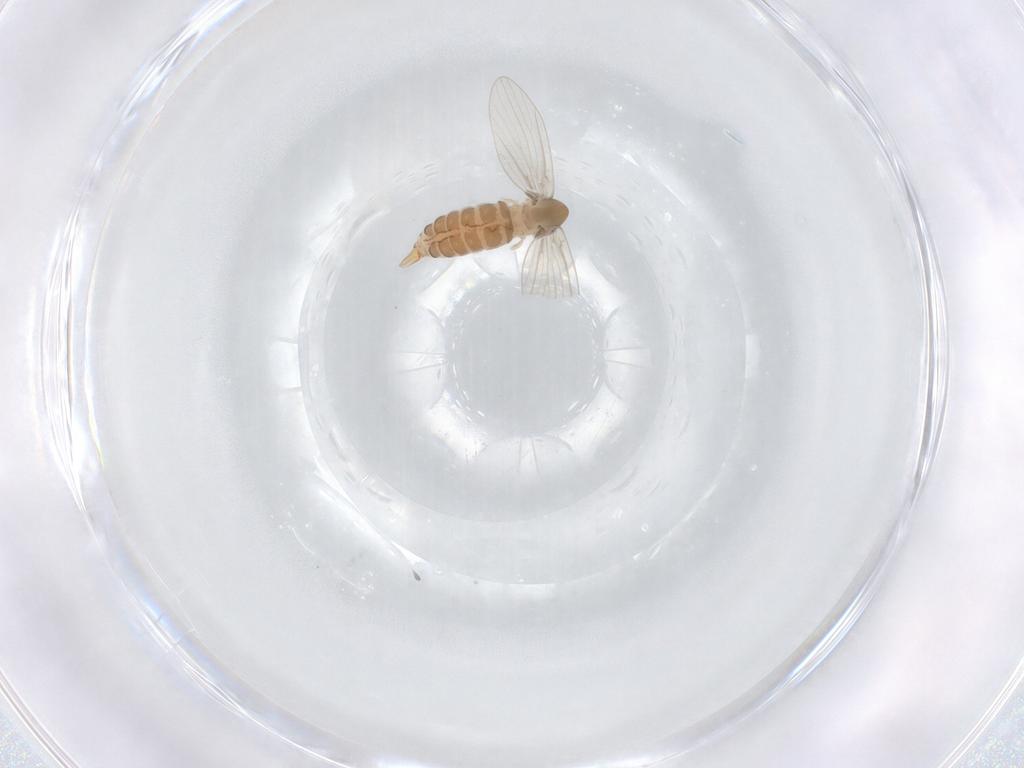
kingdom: Animalia
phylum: Arthropoda
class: Insecta
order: Diptera
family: Psychodidae
